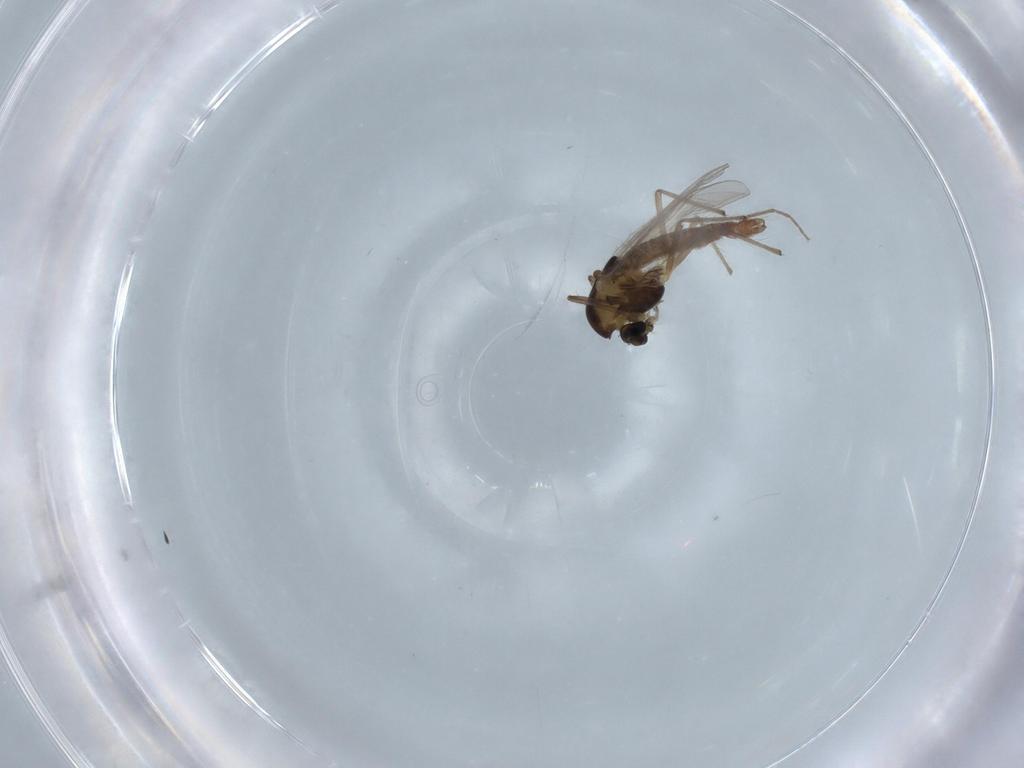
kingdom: Animalia
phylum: Arthropoda
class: Insecta
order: Diptera
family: Chironomidae
